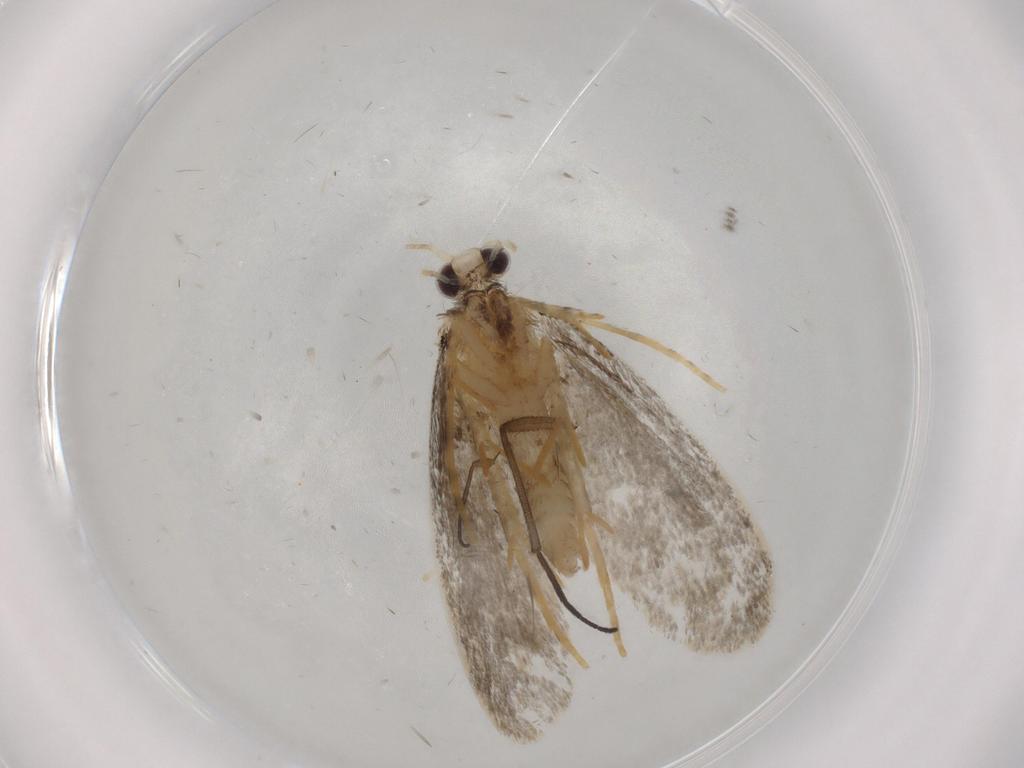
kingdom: Animalia
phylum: Arthropoda
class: Insecta
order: Lepidoptera
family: Psychidae
